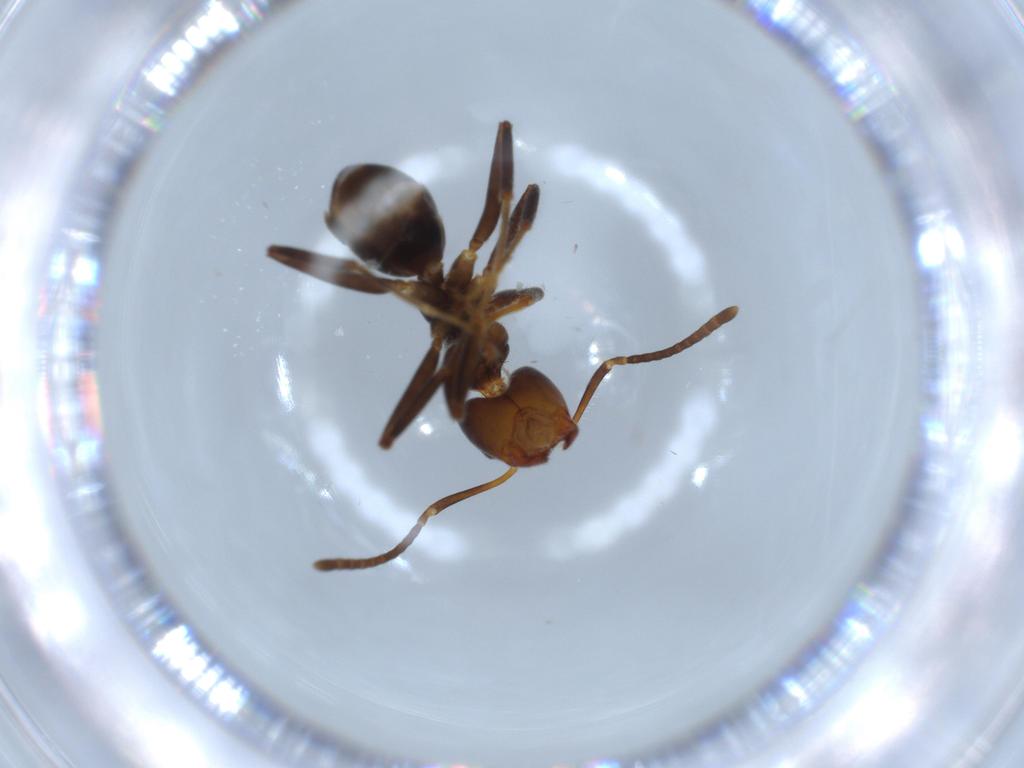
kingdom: Animalia
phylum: Arthropoda
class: Insecta
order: Hymenoptera
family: Formicidae
